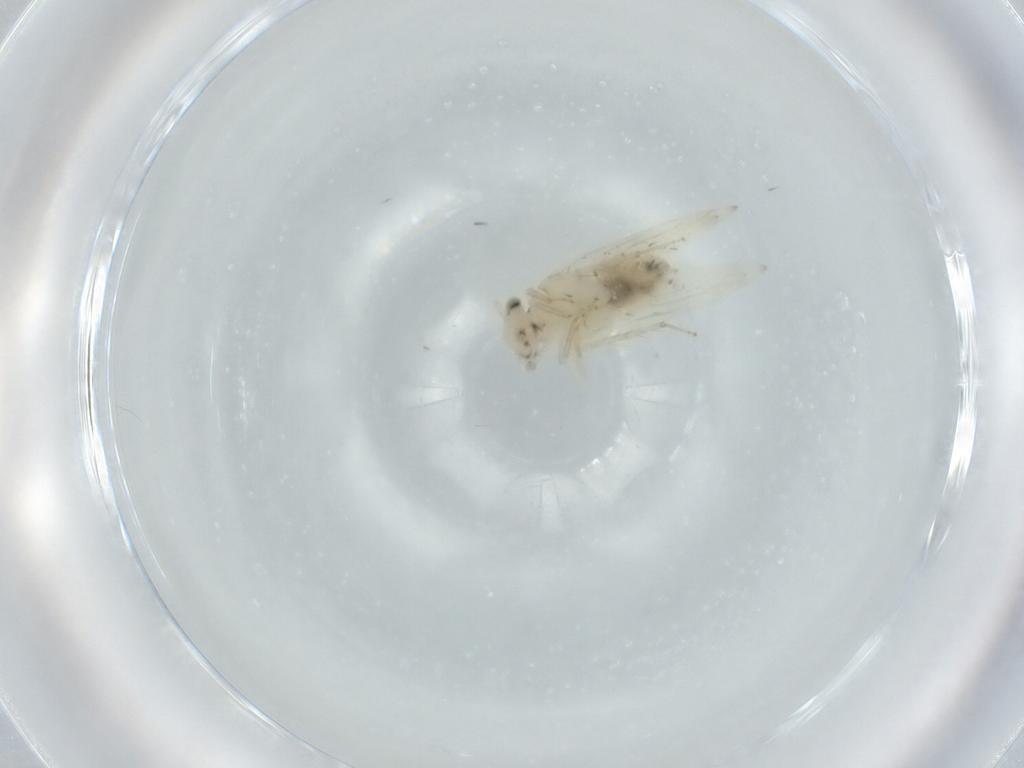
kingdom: Animalia
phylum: Arthropoda
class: Insecta
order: Psocodea
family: Lepidopsocidae
